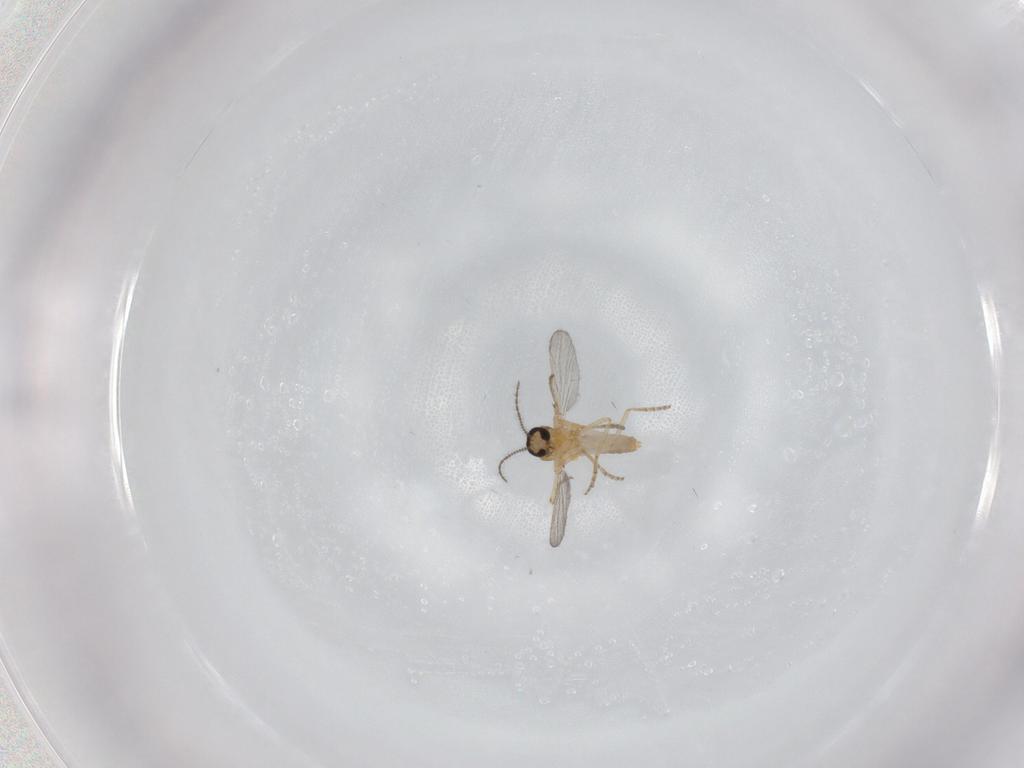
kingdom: Animalia
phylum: Arthropoda
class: Insecta
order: Diptera
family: Ceratopogonidae
